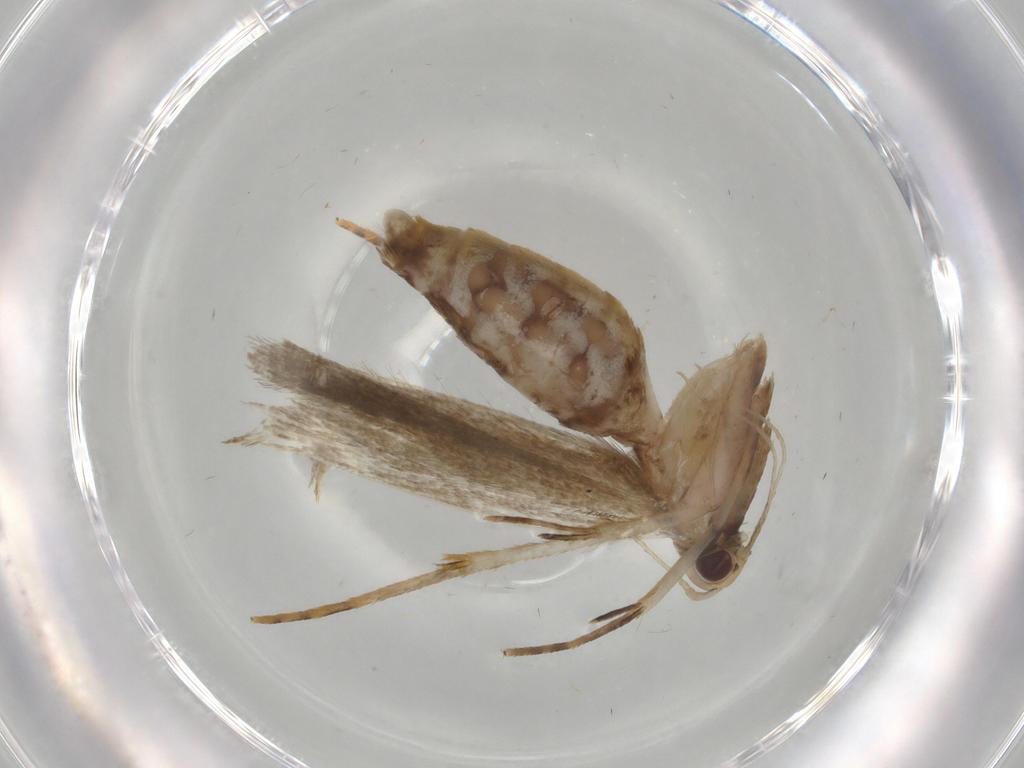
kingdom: Animalia
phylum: Arthropoda
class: Insecta
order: Lepidoptera
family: Gelechiidae
